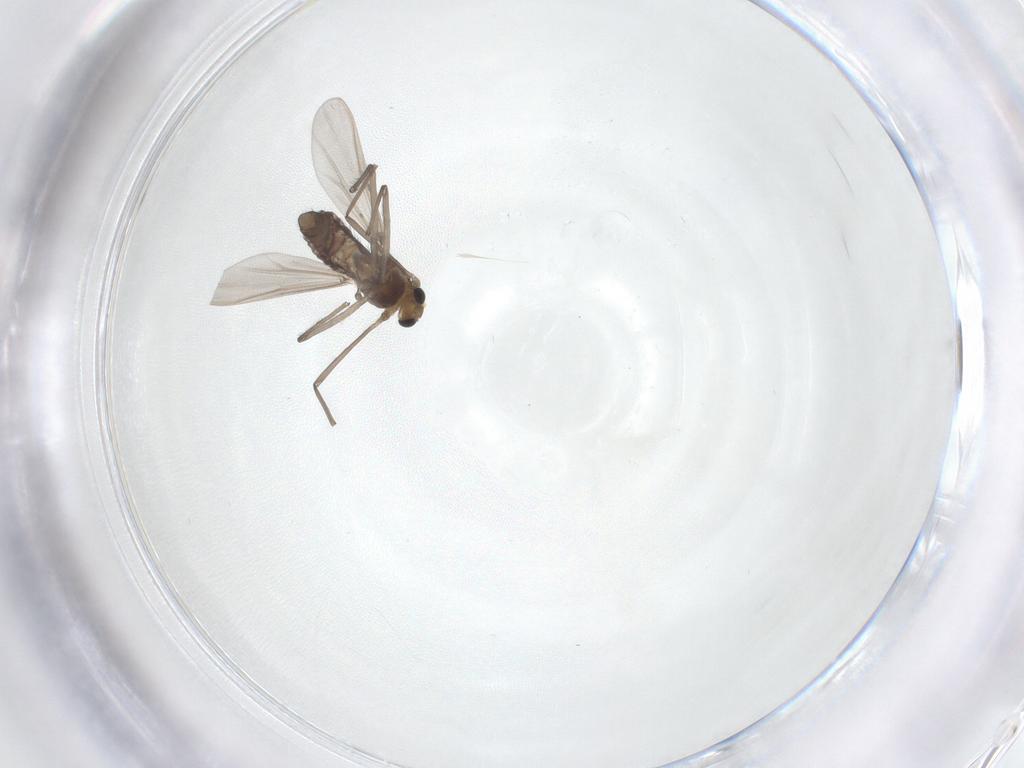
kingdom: Animalia
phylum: Arthropoda
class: Insecta
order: Diptera
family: Chironomidae
